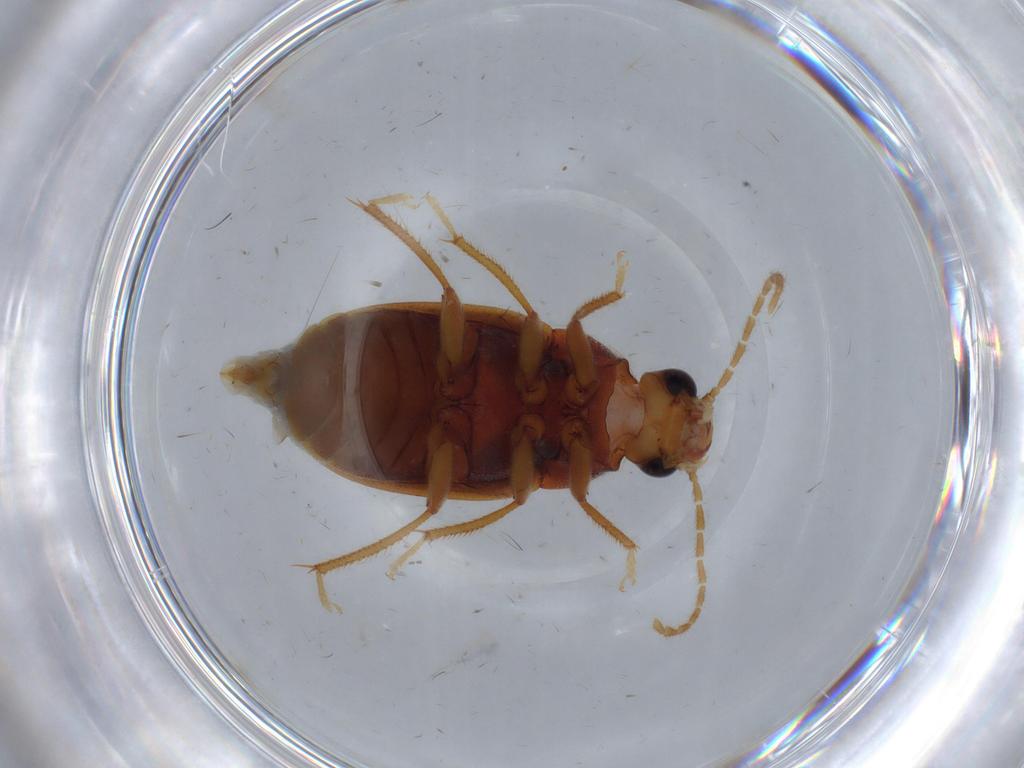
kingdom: Animalia
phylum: Arthropoda
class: Insecta
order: Coleoptera
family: Ptilodactylidae
